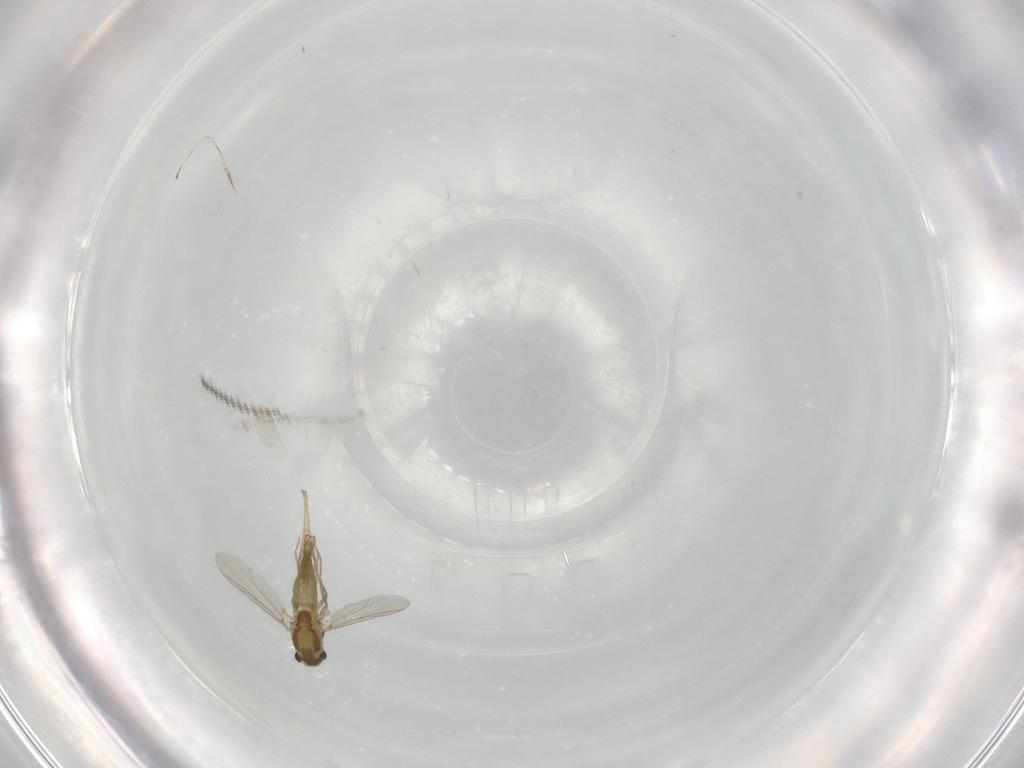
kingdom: Animalia
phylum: Arthropoda
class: Insecta
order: Diptera
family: Chironomidae
